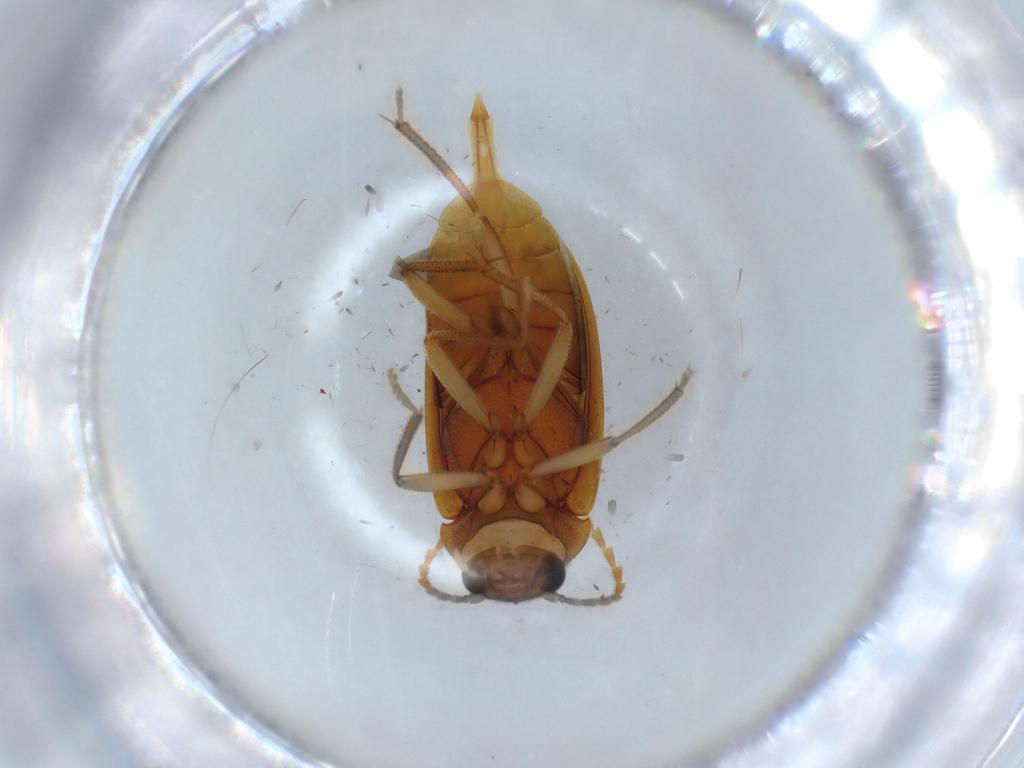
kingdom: Animalia
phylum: Arthropoda
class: Insecta
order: Coleoptera
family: Ptilodactylidae
